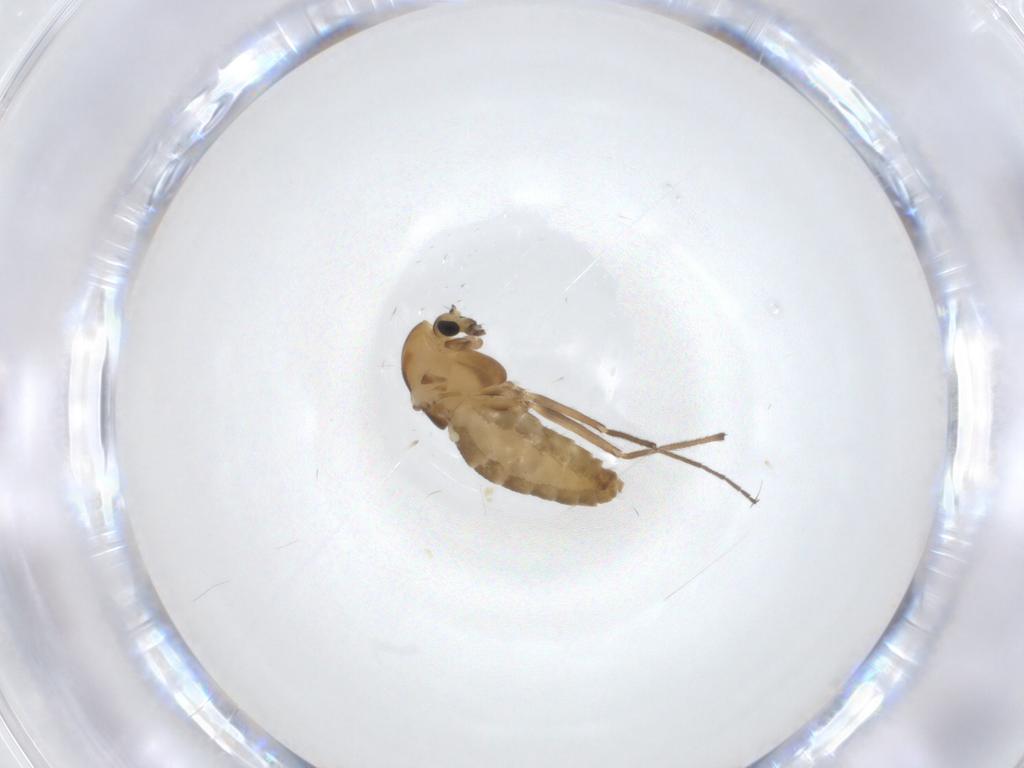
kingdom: Animalia
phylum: Arthropoda
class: Insecta
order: Diptera
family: Chironomidae
